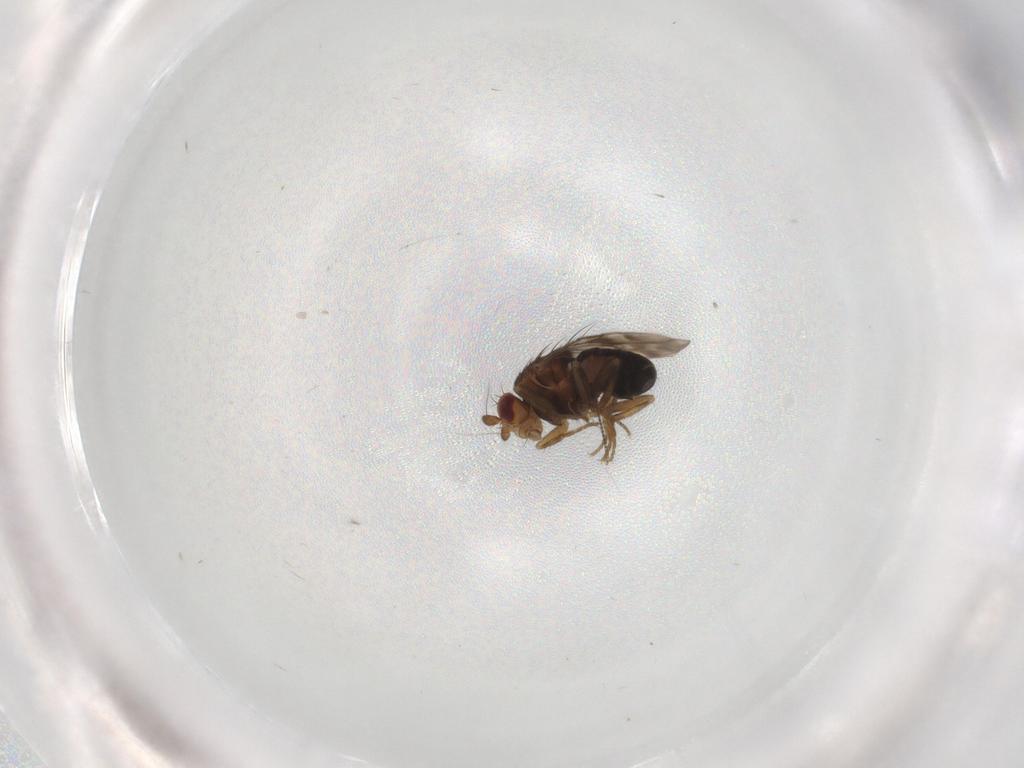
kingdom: Animalia
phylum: Arthropoda
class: Insecta
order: Diptera
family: Sphaeroceridae
